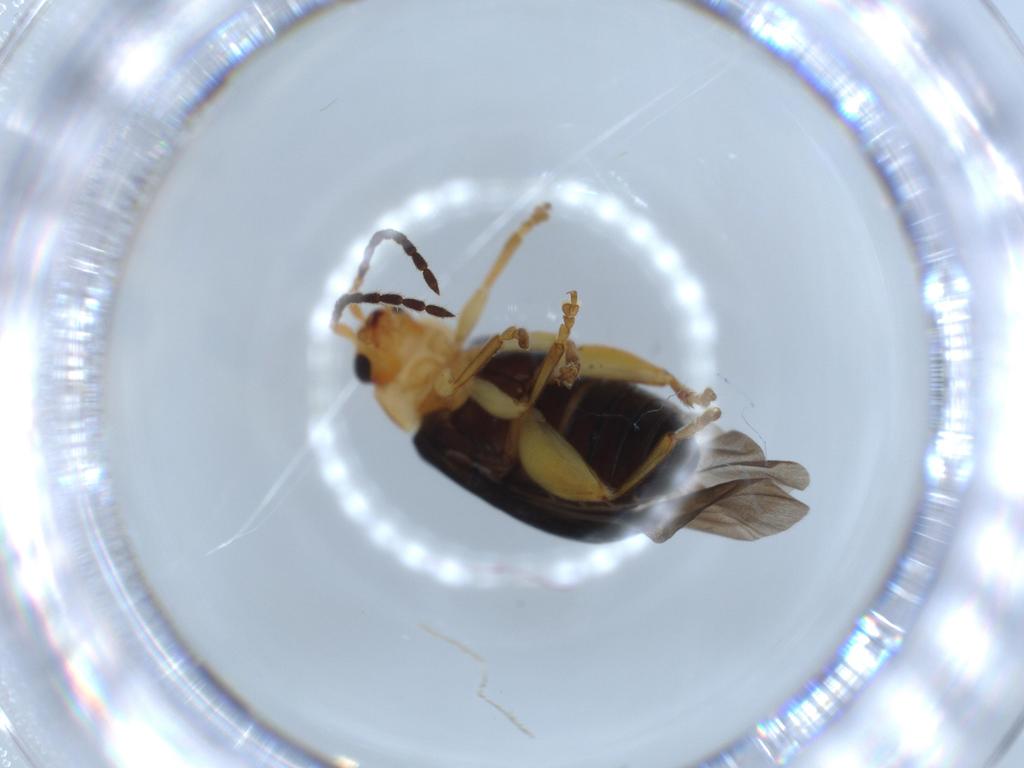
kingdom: Animalia
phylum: Arthropoda
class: Insecta
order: Coleoptera
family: Chrysomelidae
